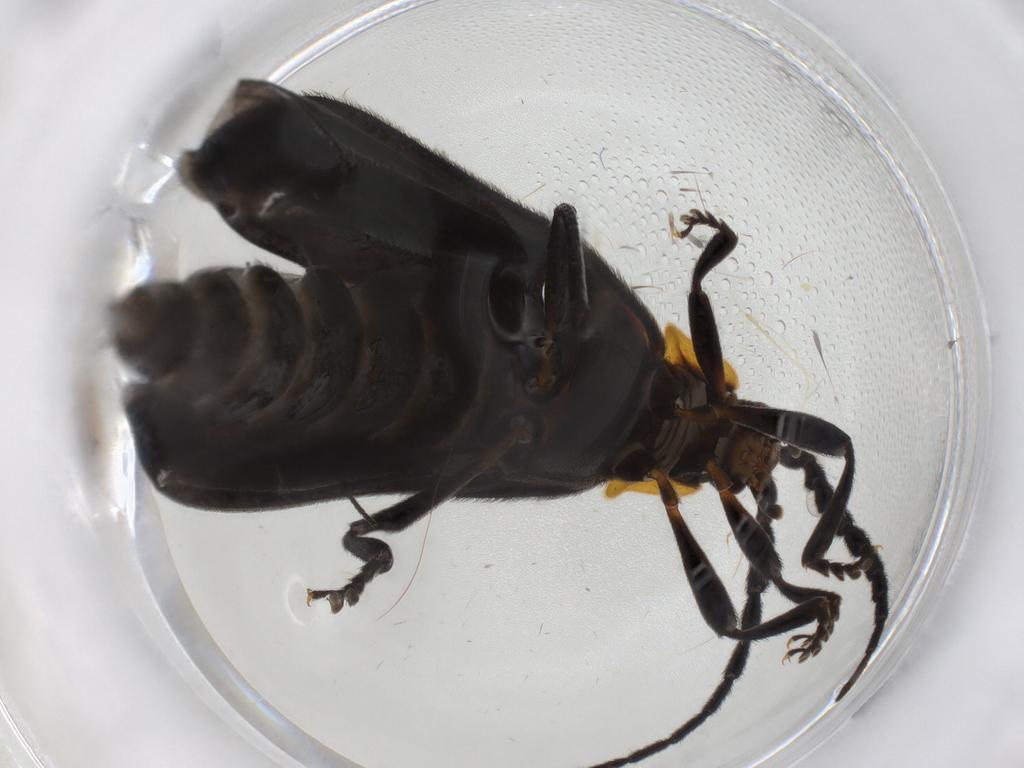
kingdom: Animalia
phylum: Arthropoda
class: Insecta
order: Coleoptera
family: Lycidae
